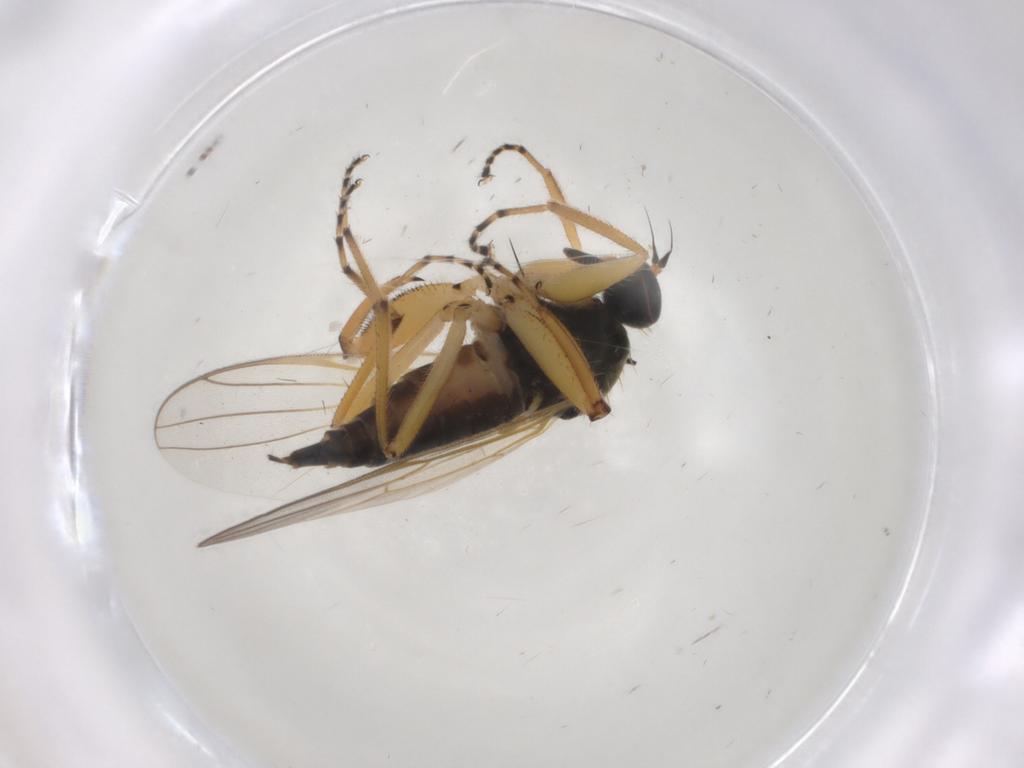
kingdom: Animalia
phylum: Arthropoda
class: Insecta
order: Diptera
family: Hybotidae
